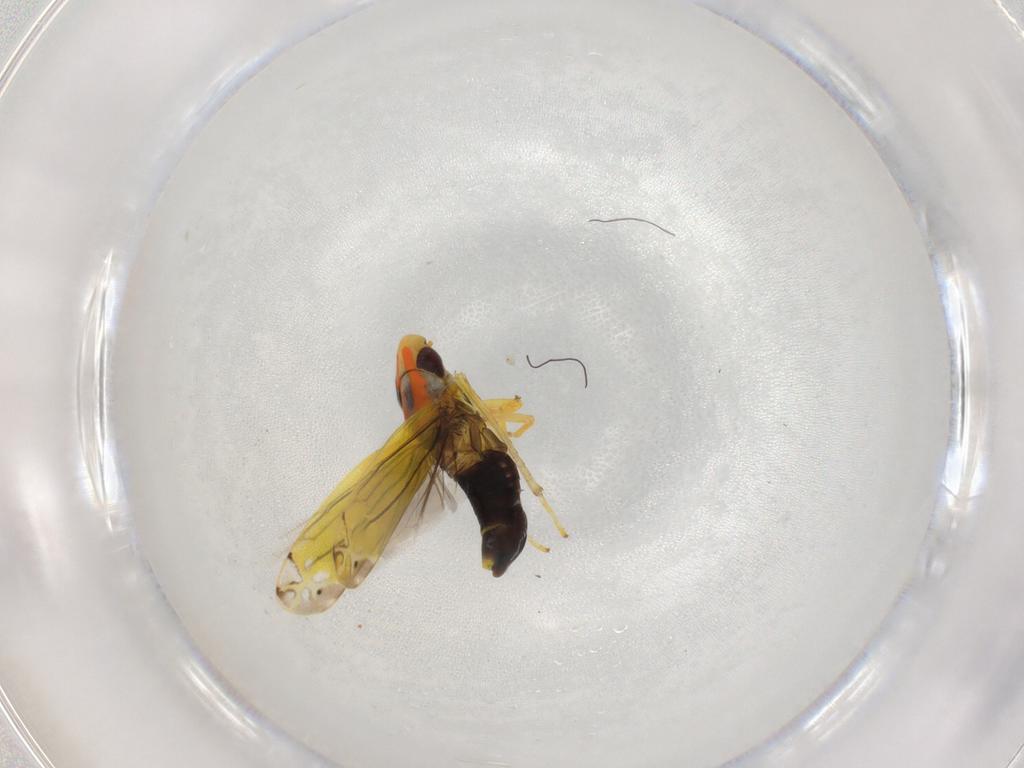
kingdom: Animalia
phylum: Arthropoda
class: Insecta
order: Hemiptera
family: Cicadellidae
